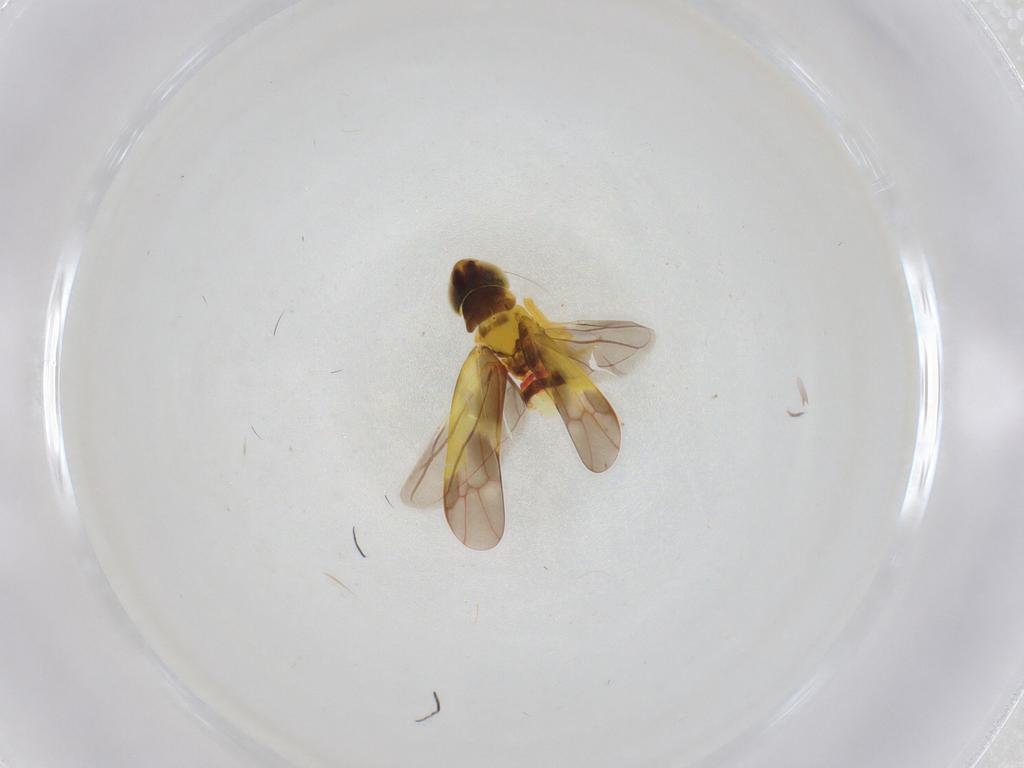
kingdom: Animalia
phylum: Arthropoda
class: Insecta
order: Hemiptera
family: Cicadellidae
